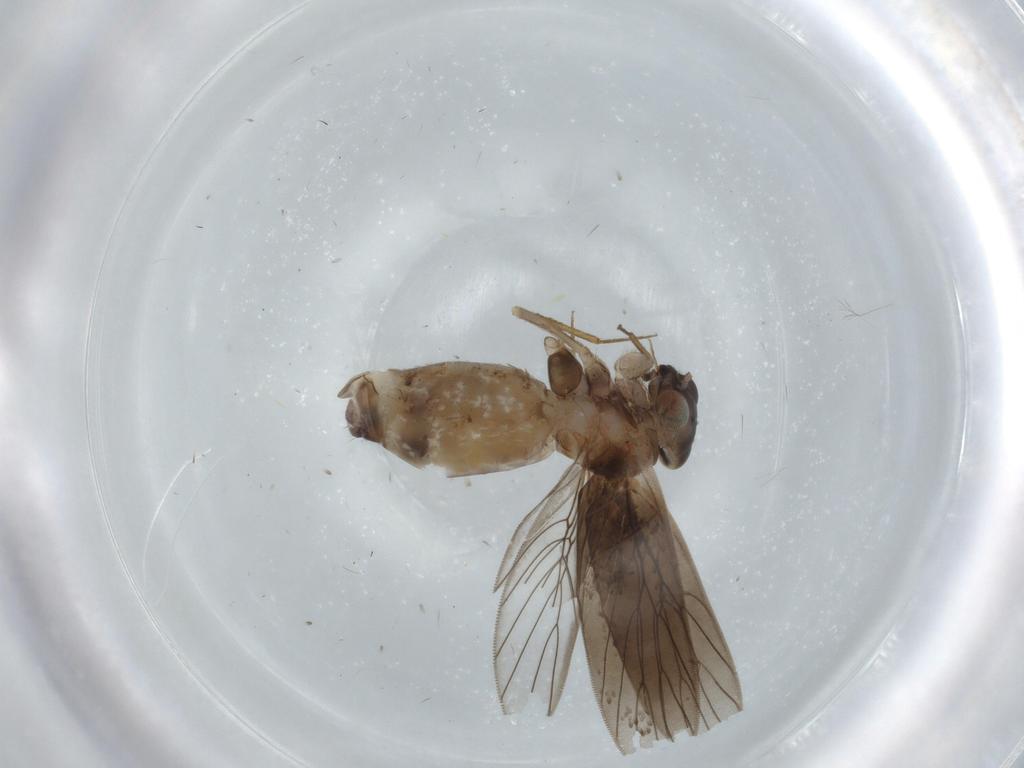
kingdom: Animalia
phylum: Arthropoda
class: Insecta
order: Psocodea
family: Lepidopsocidae
